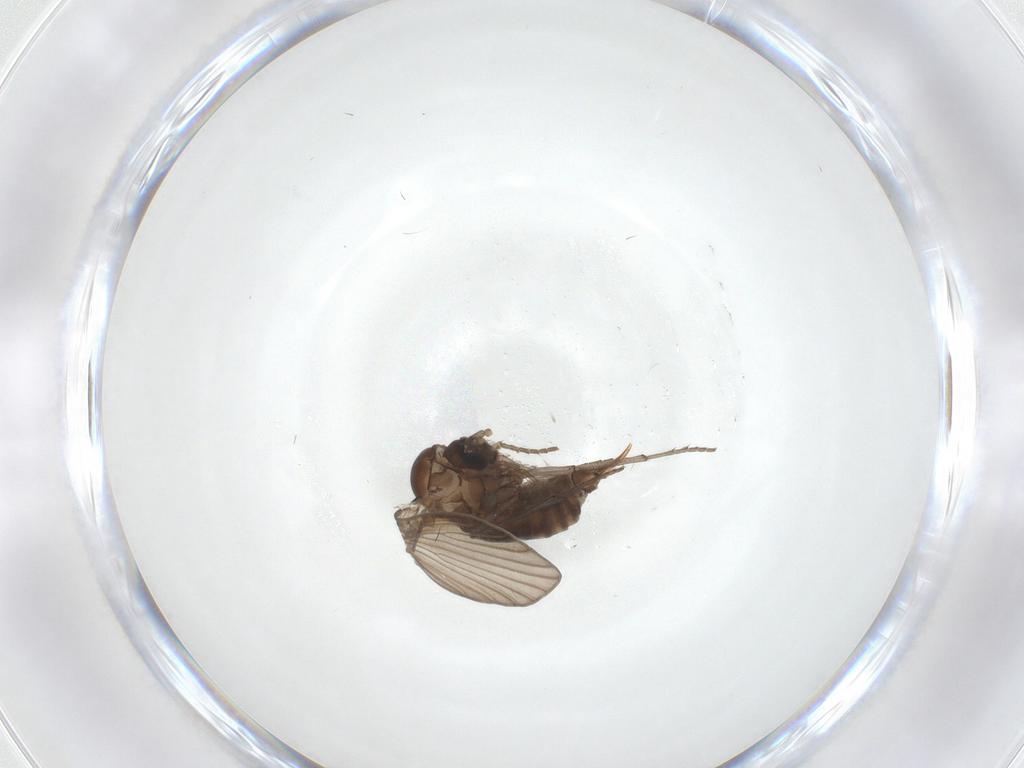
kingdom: Animalia
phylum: Arthropoda
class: Insecta
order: Diptera
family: Psychodidae
